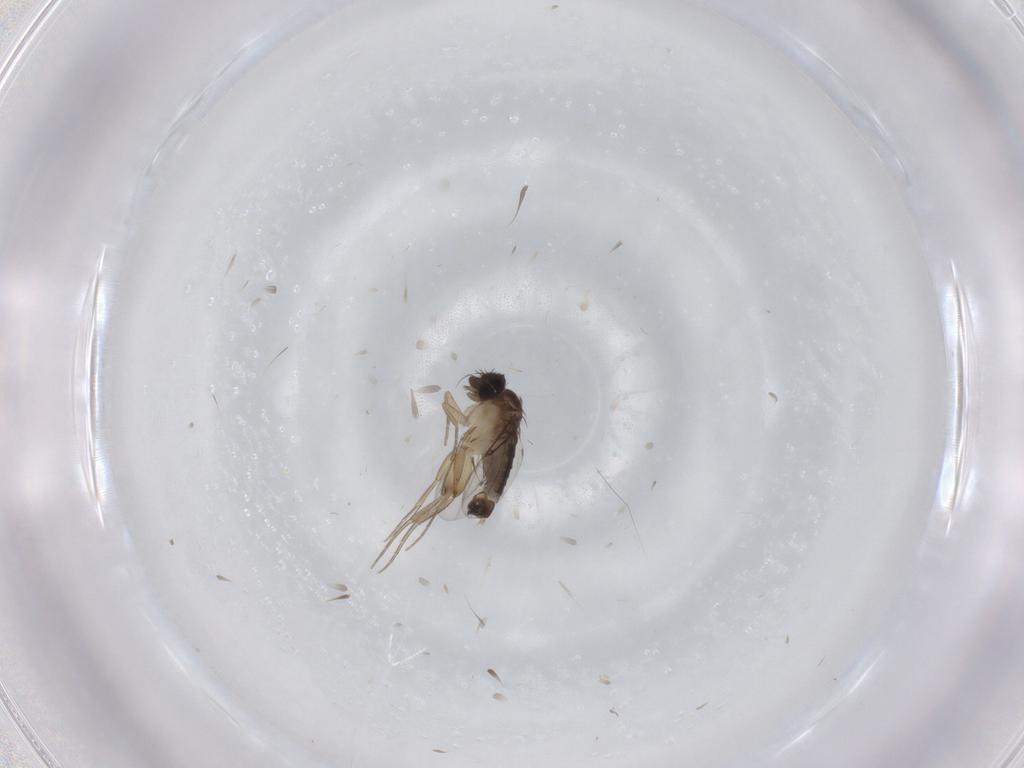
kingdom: Animalia
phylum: Arthropoda
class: Insecta
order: Diptera
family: Phoridae
